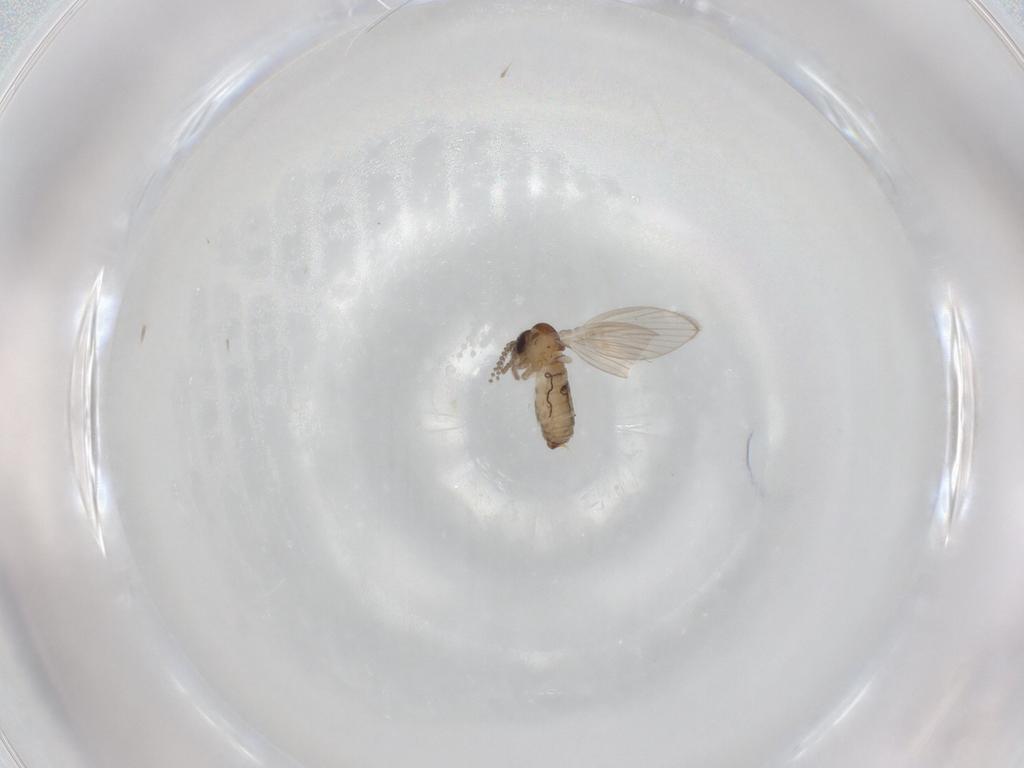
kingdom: Animalia
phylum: Arthropoda
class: Insecta
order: Diptera
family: Psychodidae
